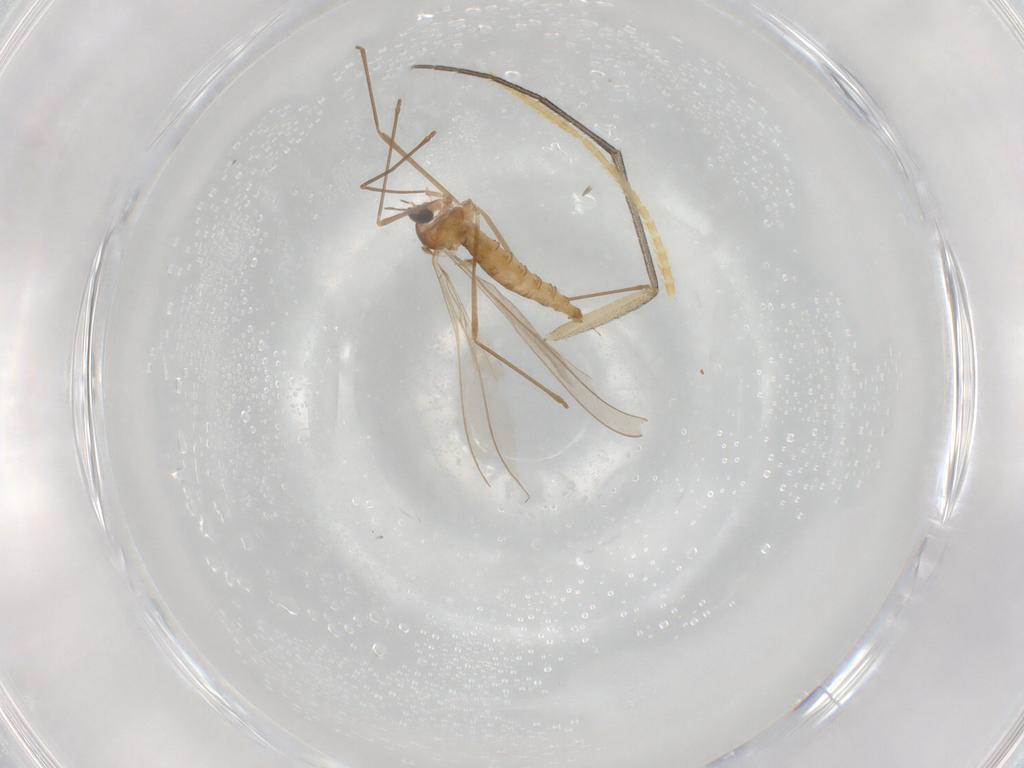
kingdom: Animalia
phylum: Arthropoda
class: Insecta
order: Diptera
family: Cecidomyiidae
